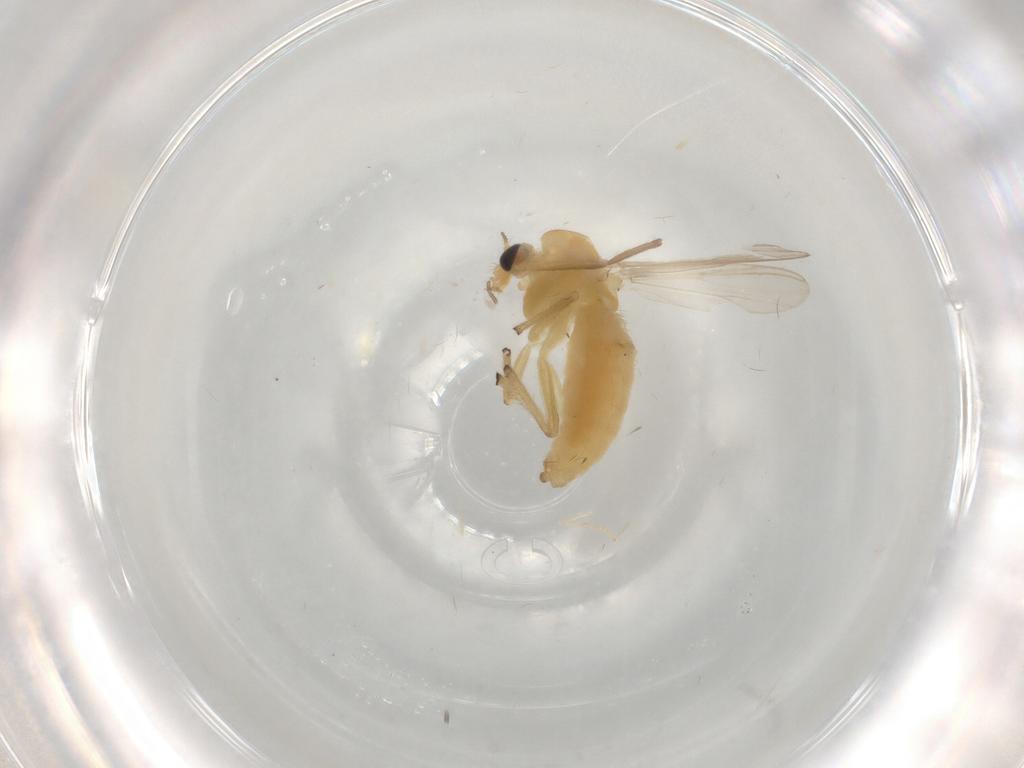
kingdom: Animalia
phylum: Arthropoda
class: Insecta
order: Diptera
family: Chironomidae
